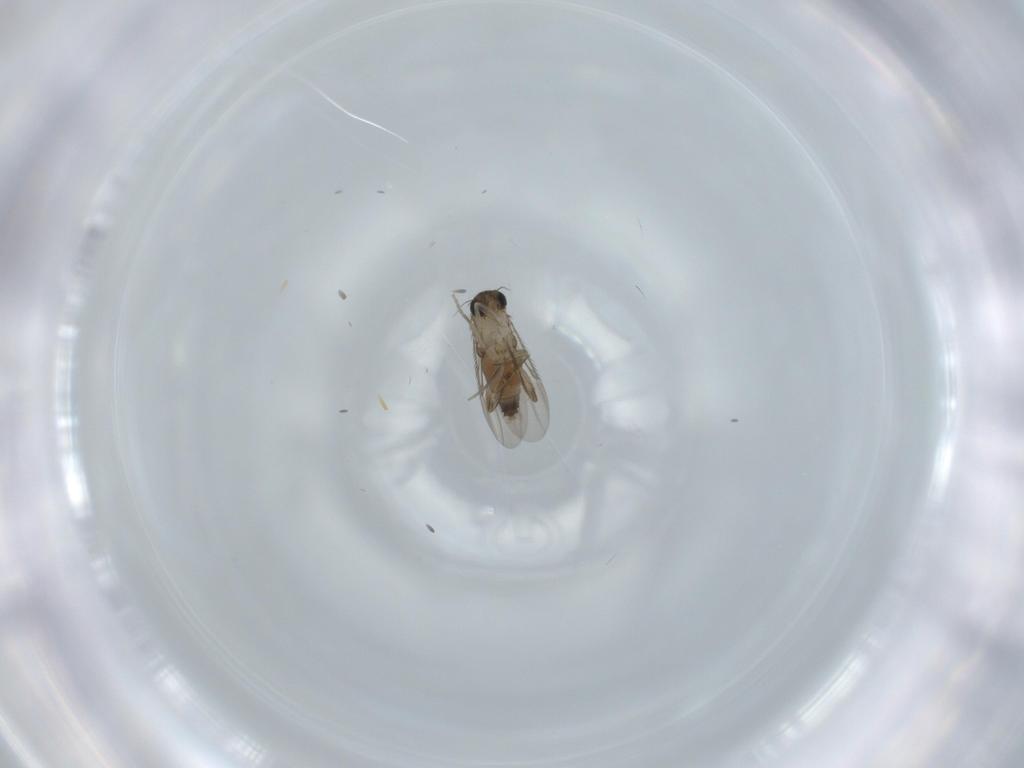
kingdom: Animalia
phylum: Arthropoda
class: Insecta
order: Diptera
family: Phoridae
